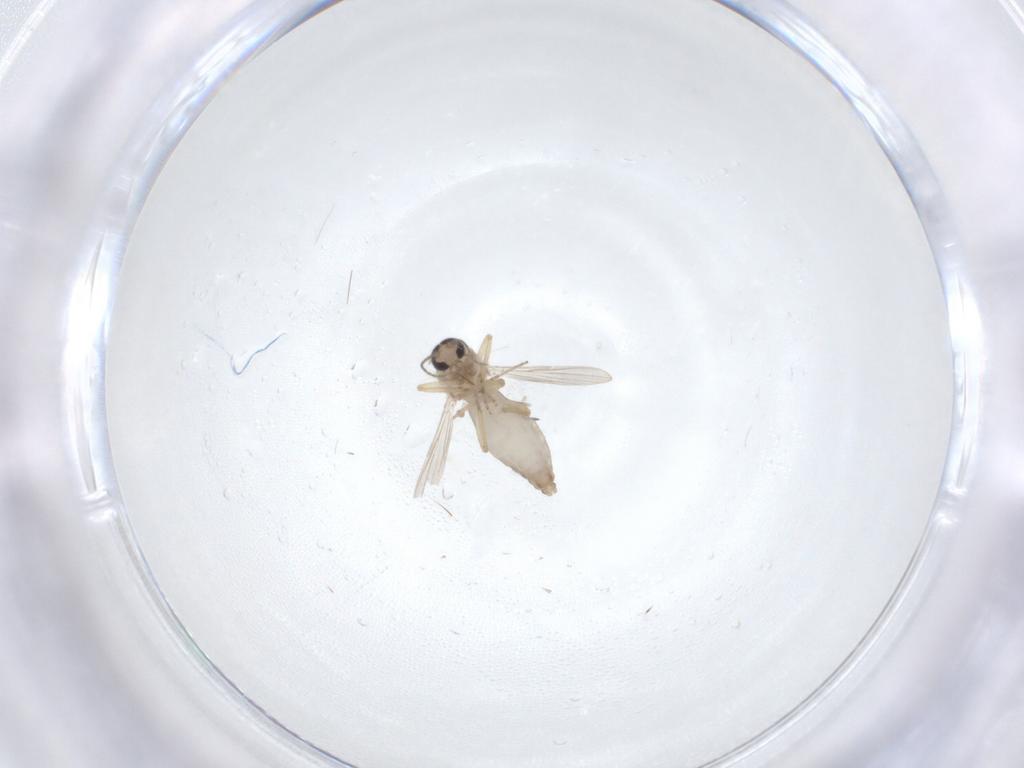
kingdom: Animalia
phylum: Arthropoda
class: Insecta
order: Diptera
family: Ceratopogonidae
